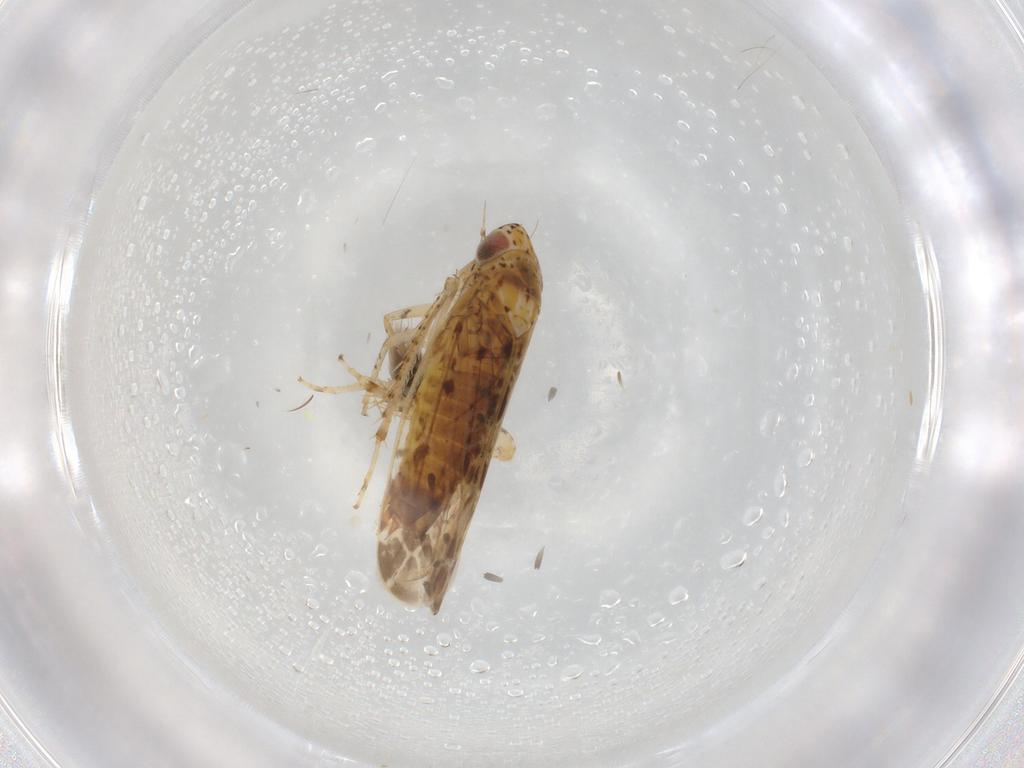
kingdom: Animalia
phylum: Arthropoda
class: Insecta
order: Hemiptera
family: Cicadellidae
